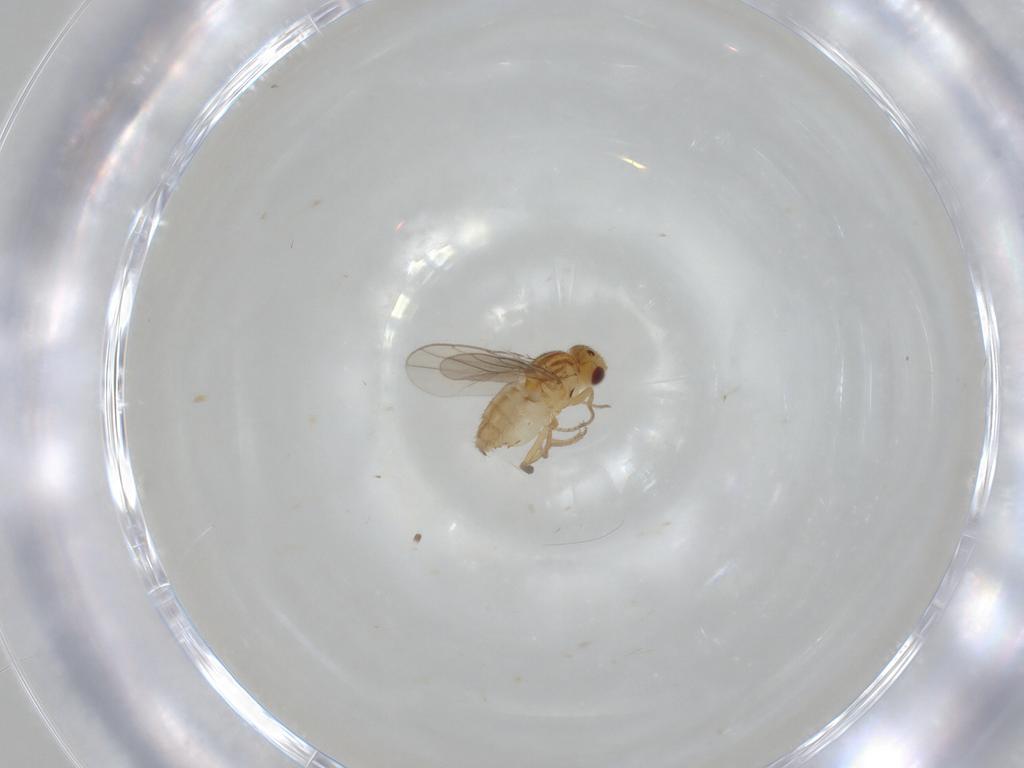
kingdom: Animalia
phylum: Arthropoda
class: Insecta
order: Diptera
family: Chloropidae
